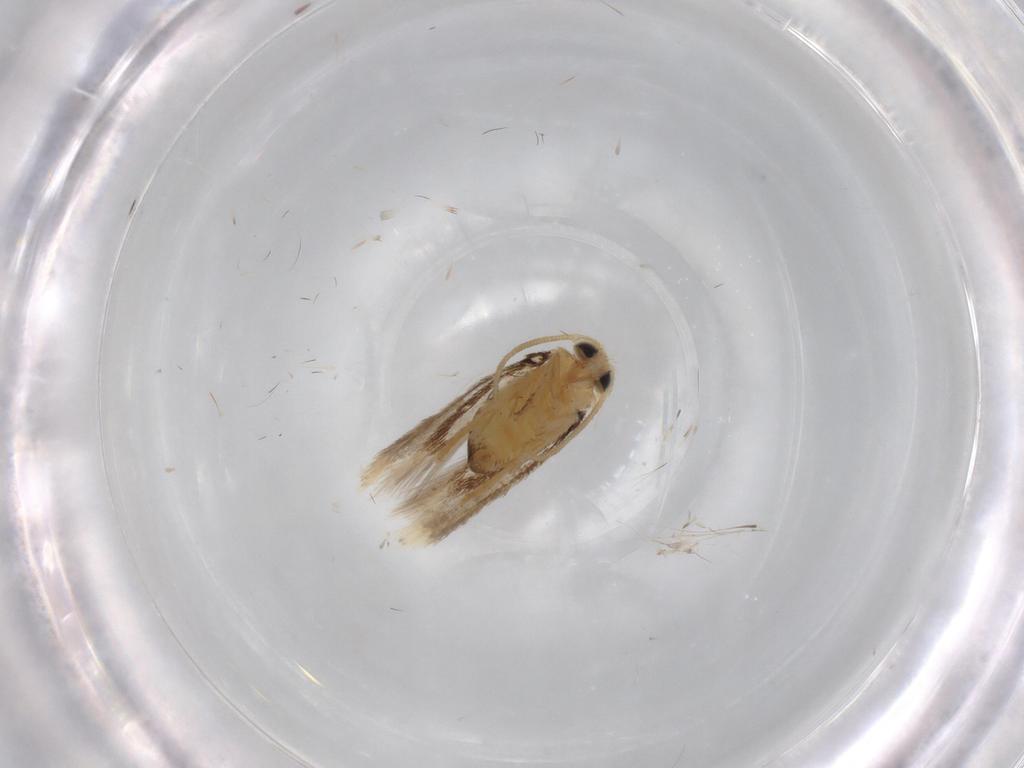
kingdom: Animalia
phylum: Arthropoda
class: Insecta
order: Lepidoptera
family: Nepticulidae
